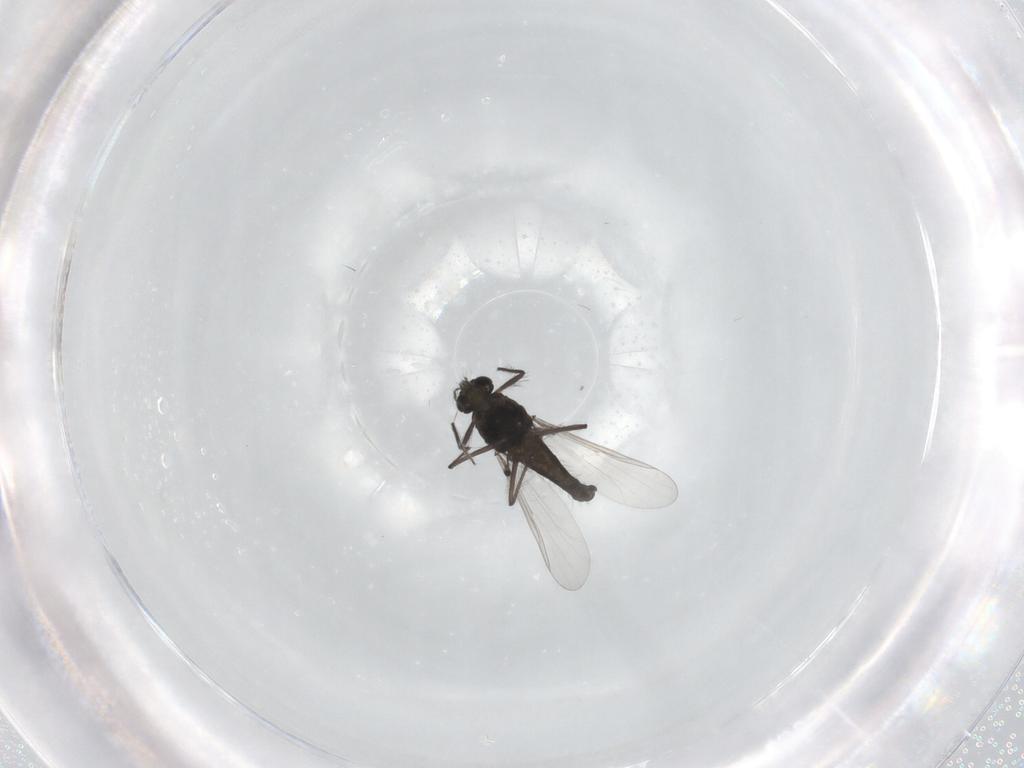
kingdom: Animalia
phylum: Arthropoda
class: Insecta
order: Diptera
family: Chironomidae
